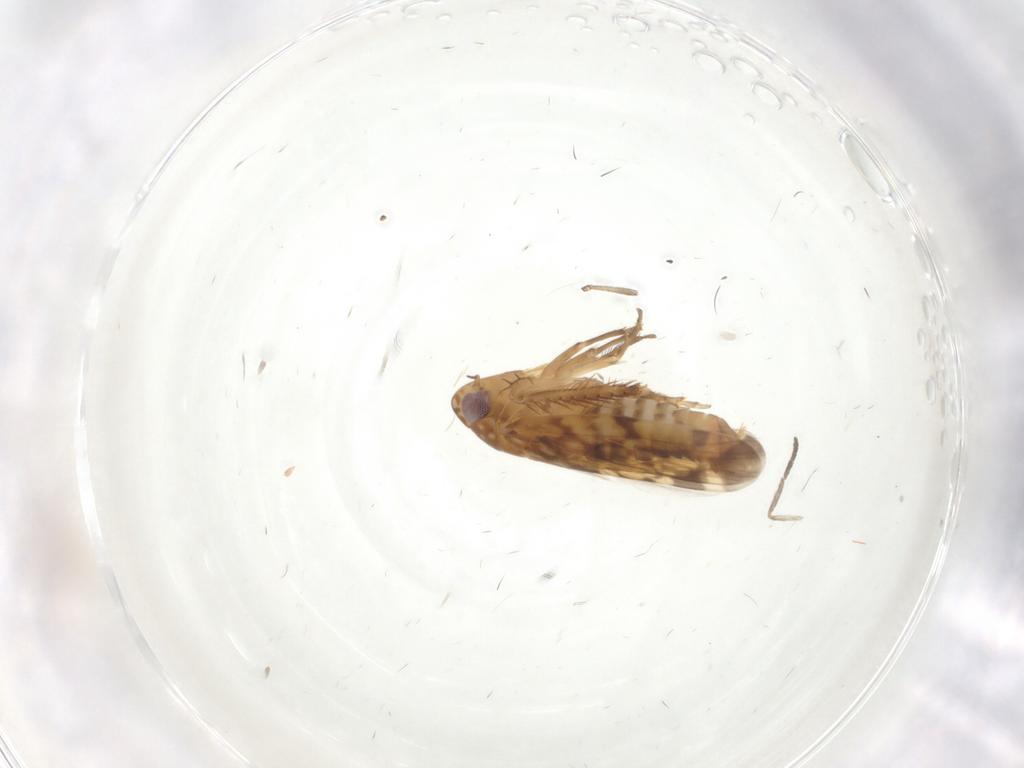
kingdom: Animalia
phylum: Arthropoda
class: Insecta
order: Hemiptera
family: Cicadellidae
